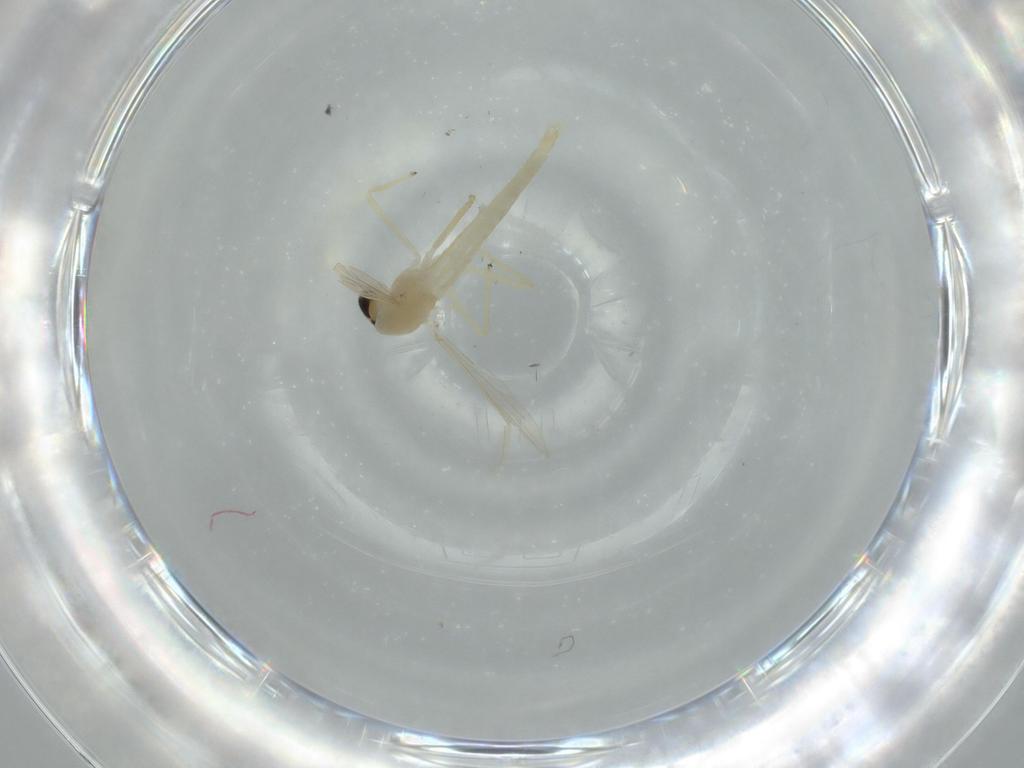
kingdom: Animalia
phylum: Arthropoda
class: Insecta
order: Diptera
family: Chironomidae
